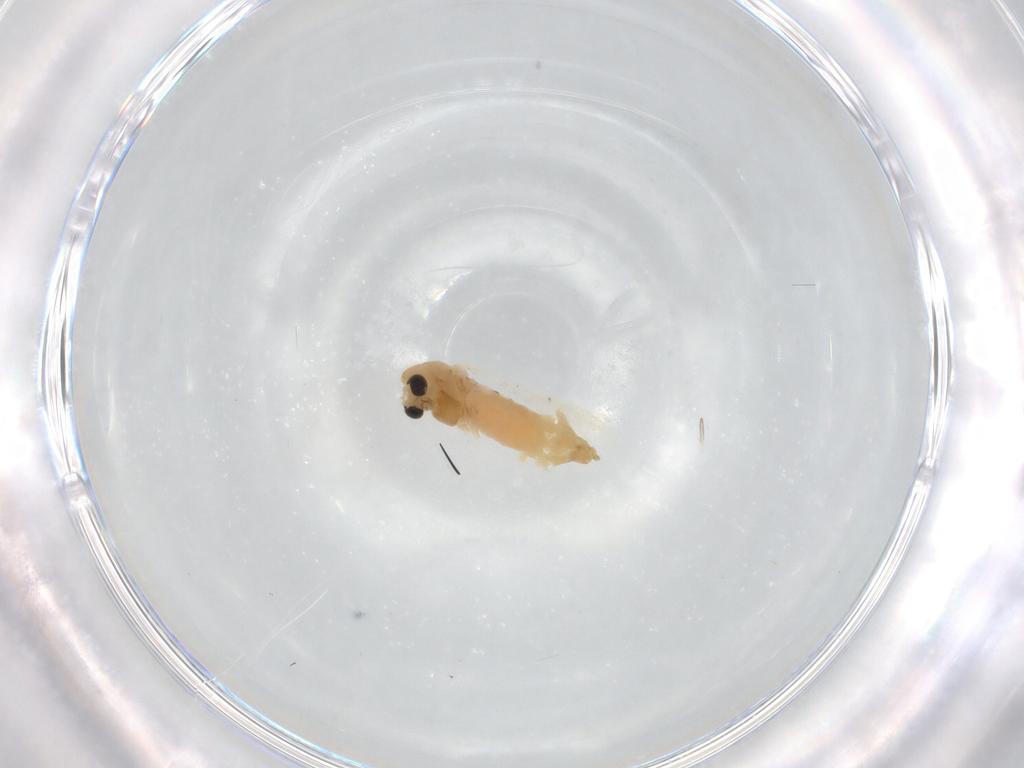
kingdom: Animalia
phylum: Arthropoda
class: Insecta
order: Diptera
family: Chironomidae
